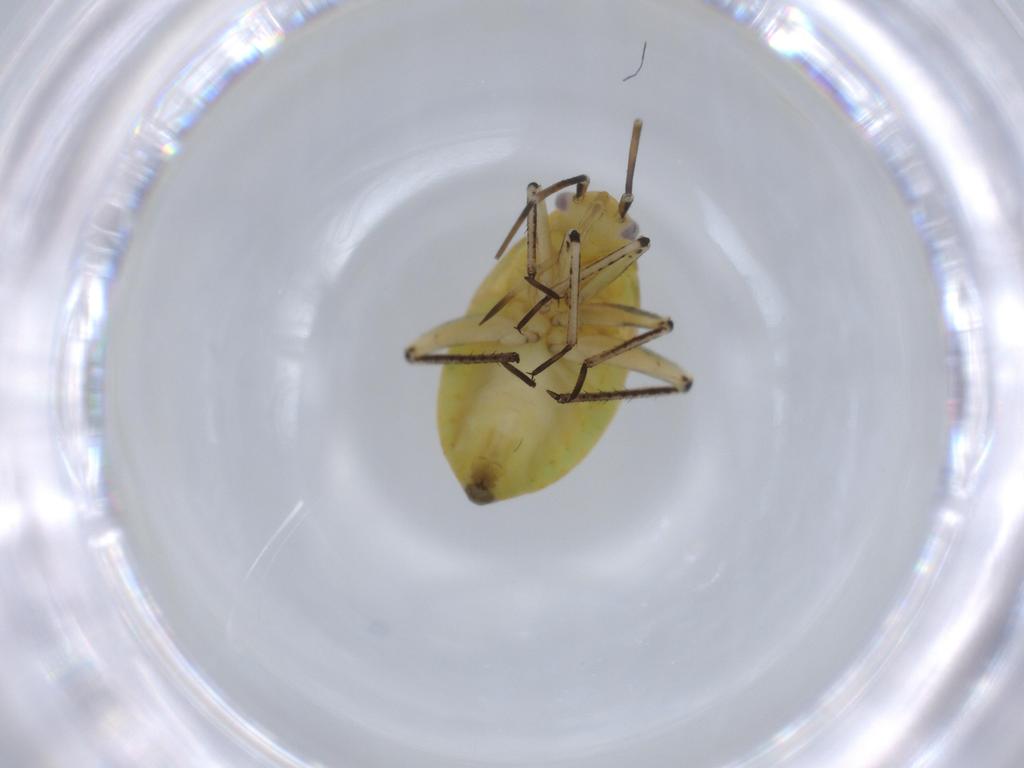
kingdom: Animalia
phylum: Arthropoda
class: Insecta
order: Hemiptera
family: Miridae
